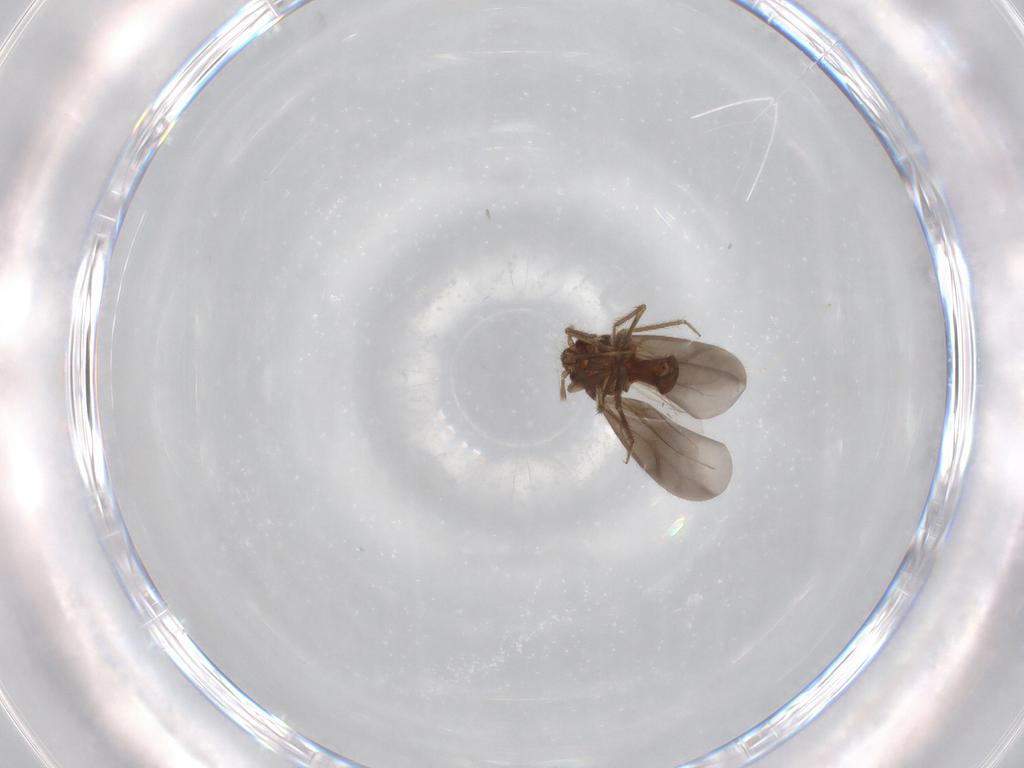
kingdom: Animalia
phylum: Arthropoda
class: Insecta
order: Hemiptera
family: Ceratocombidae
